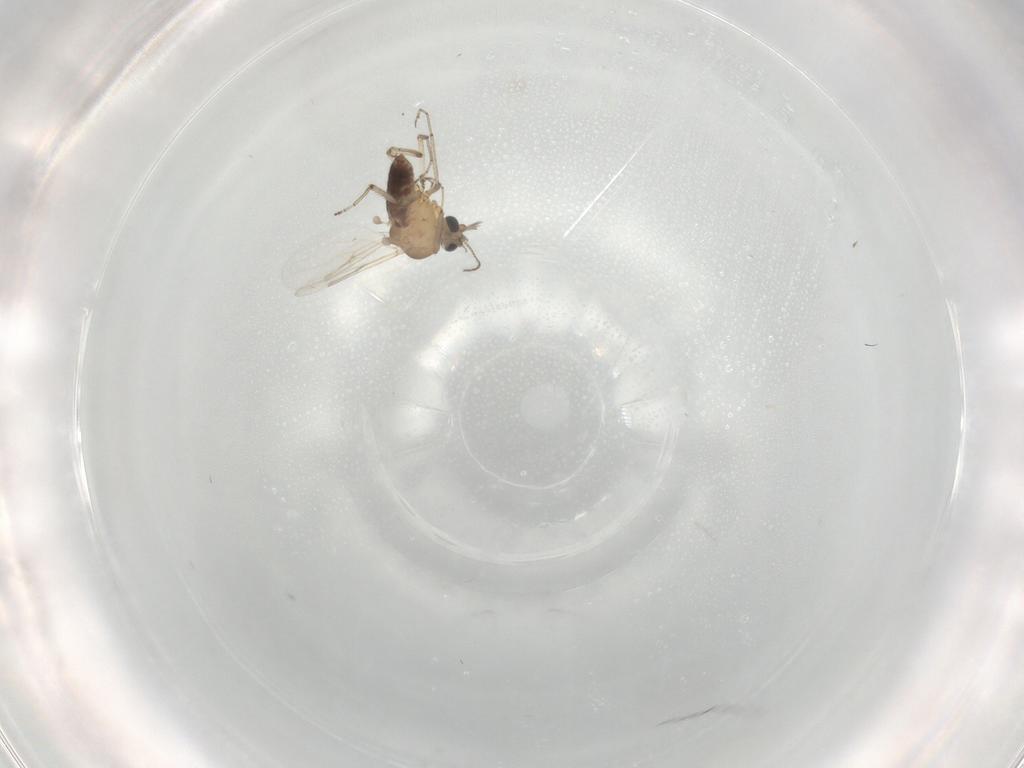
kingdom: Animalia
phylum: Arthropoda
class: Insecta
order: Diptera
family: Ceratopogonidae
